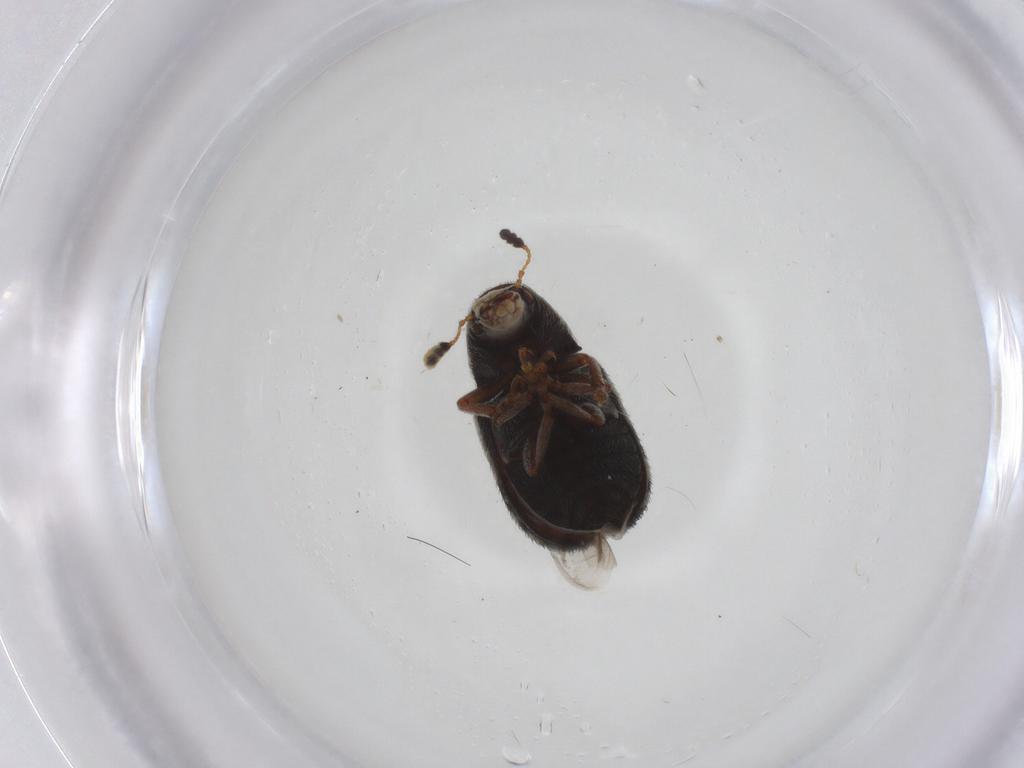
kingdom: Animalia
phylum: Arthropoda
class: Insecta
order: Coleoptera
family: Anthribidae
